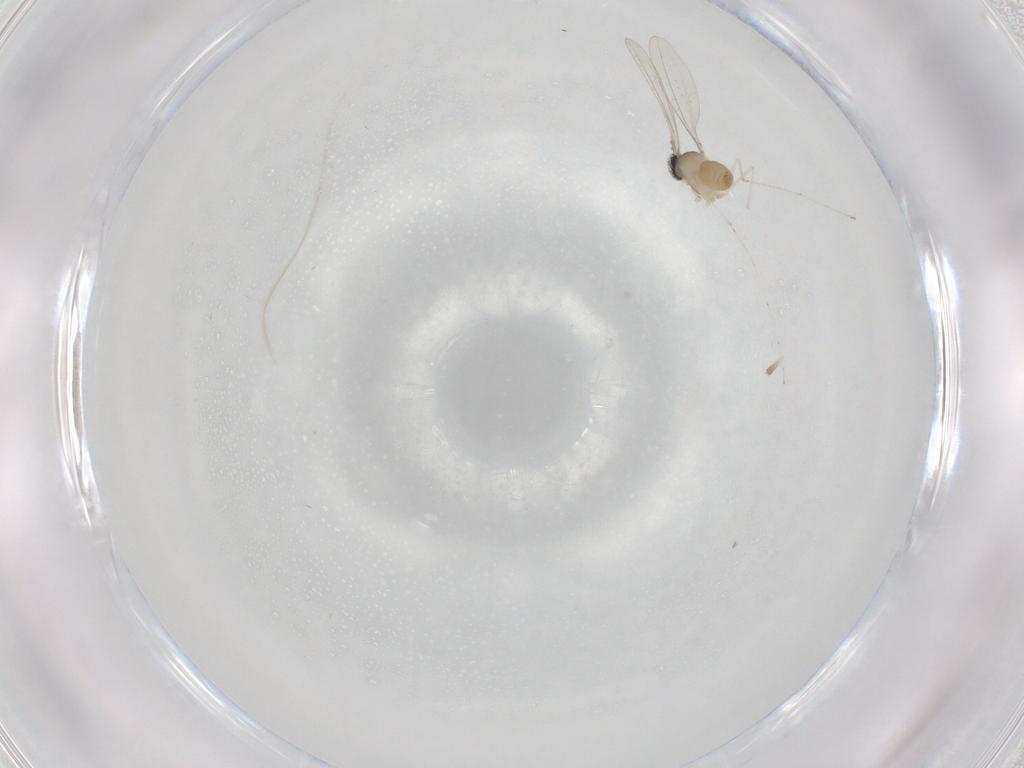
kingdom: Animalia
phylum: Arthropoda
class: Insecta
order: Diptera
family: Cecidomyiidae
